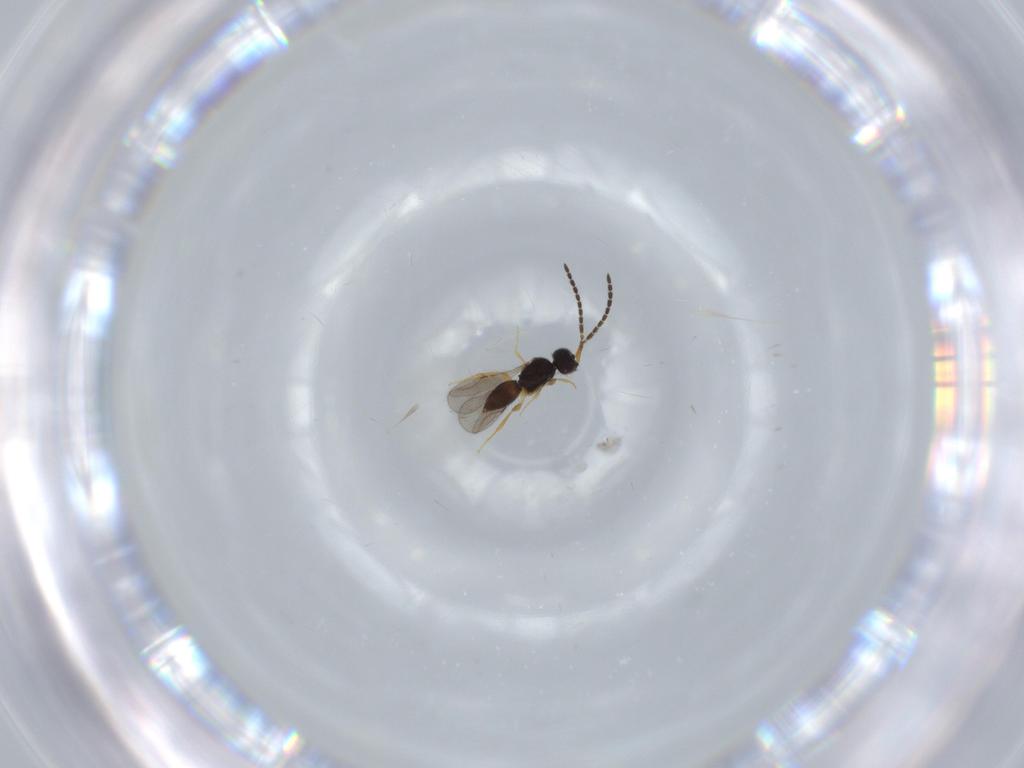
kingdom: Animalia
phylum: Arthropoda
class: Insecta
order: Hymenoptera
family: Ceraphronidae
